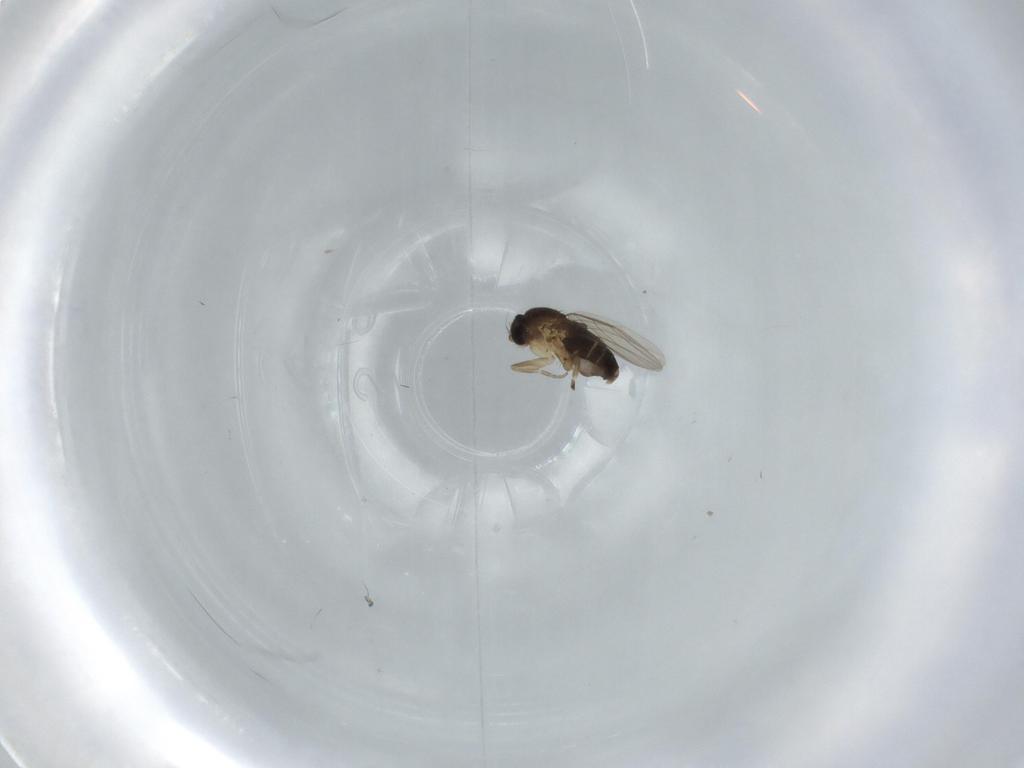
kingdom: Animalia
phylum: Arthropoda
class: Insecta
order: Diptera
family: Phoridae
